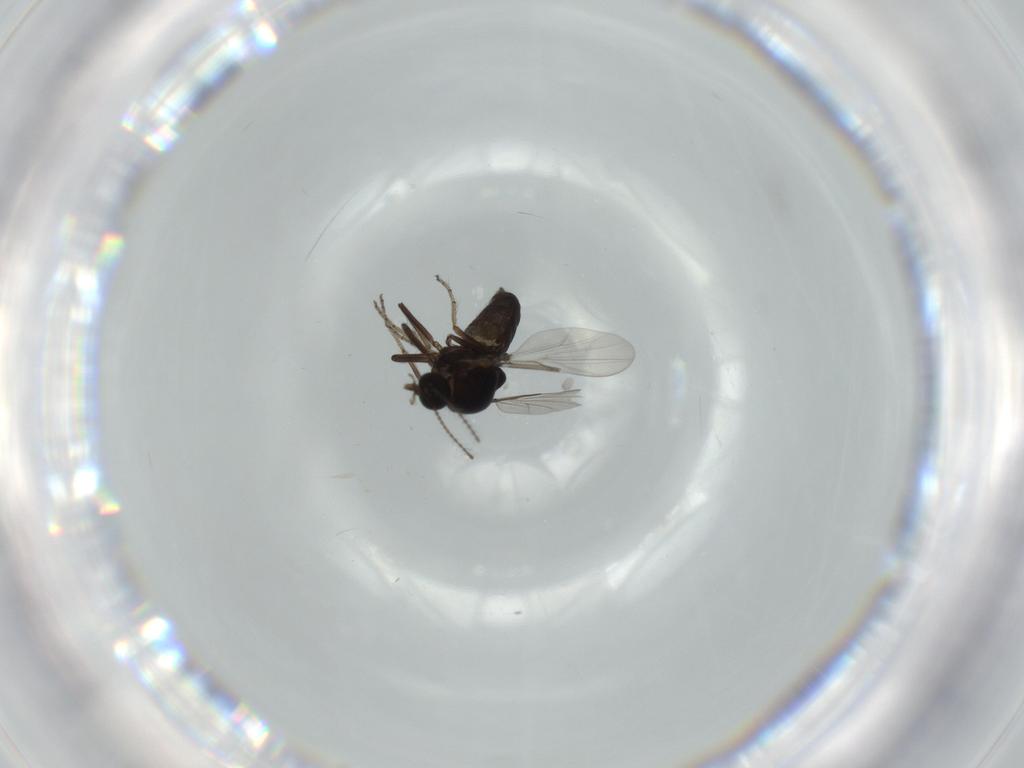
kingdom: Animalia
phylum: Arthropoda
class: Insecta
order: Diptera
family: Ceratopogonidae
